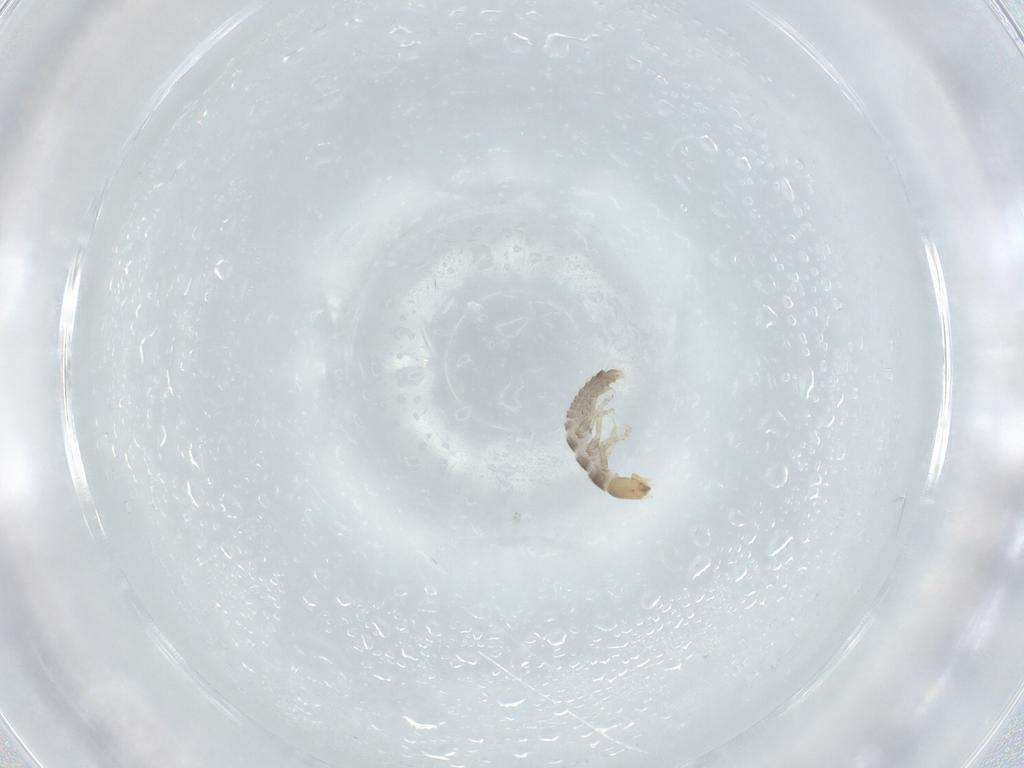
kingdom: Animalia
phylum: Arthropoda
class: Insecta
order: Coleoptera
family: Staphylinidae
